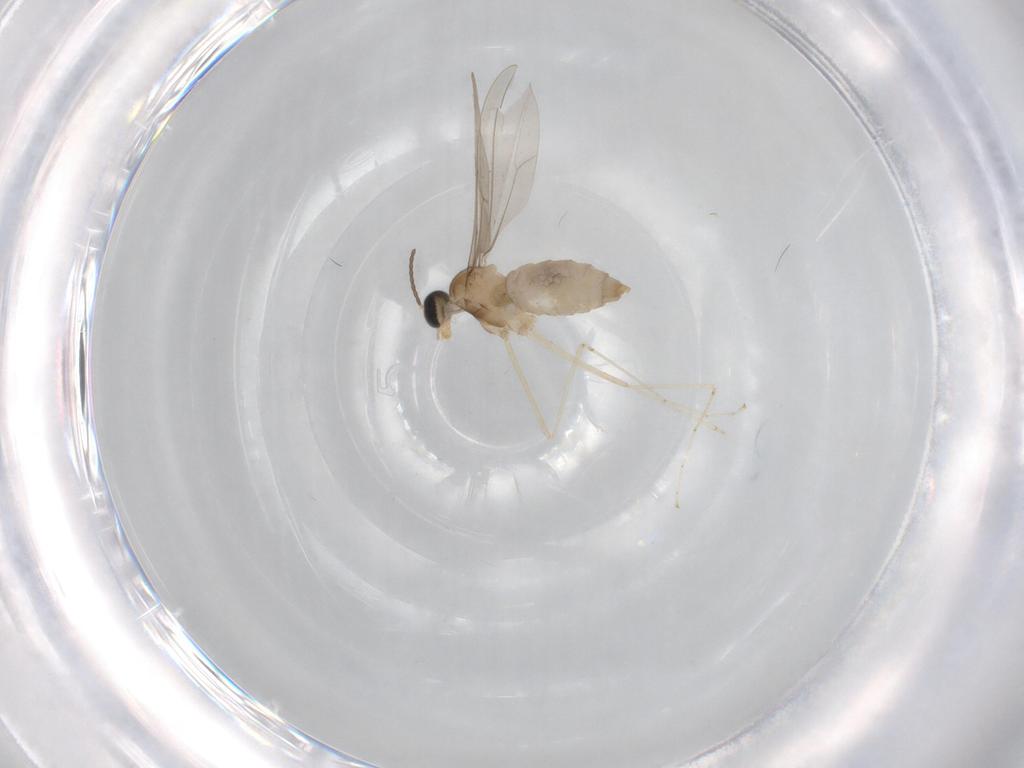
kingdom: Animalia
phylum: Arthropoda
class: Insecta
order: Diptera
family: Cecidomyiidae
